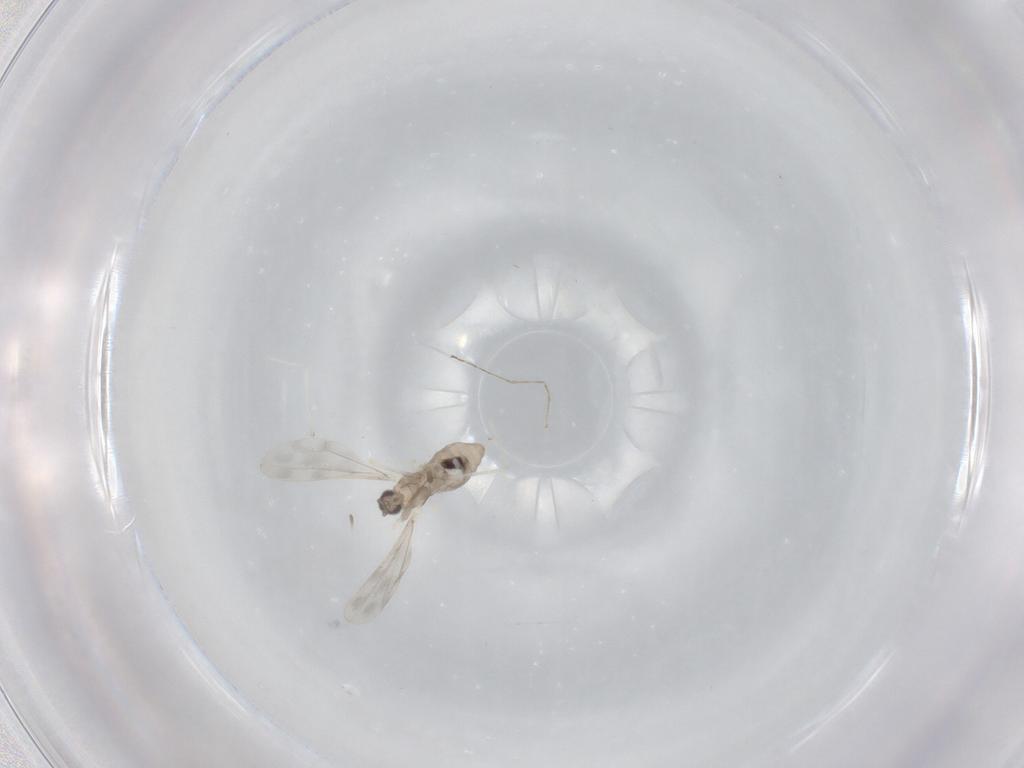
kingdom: Animalia
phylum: Arthropoda
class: Insecta
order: Diptera
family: Cecidomyiidae
